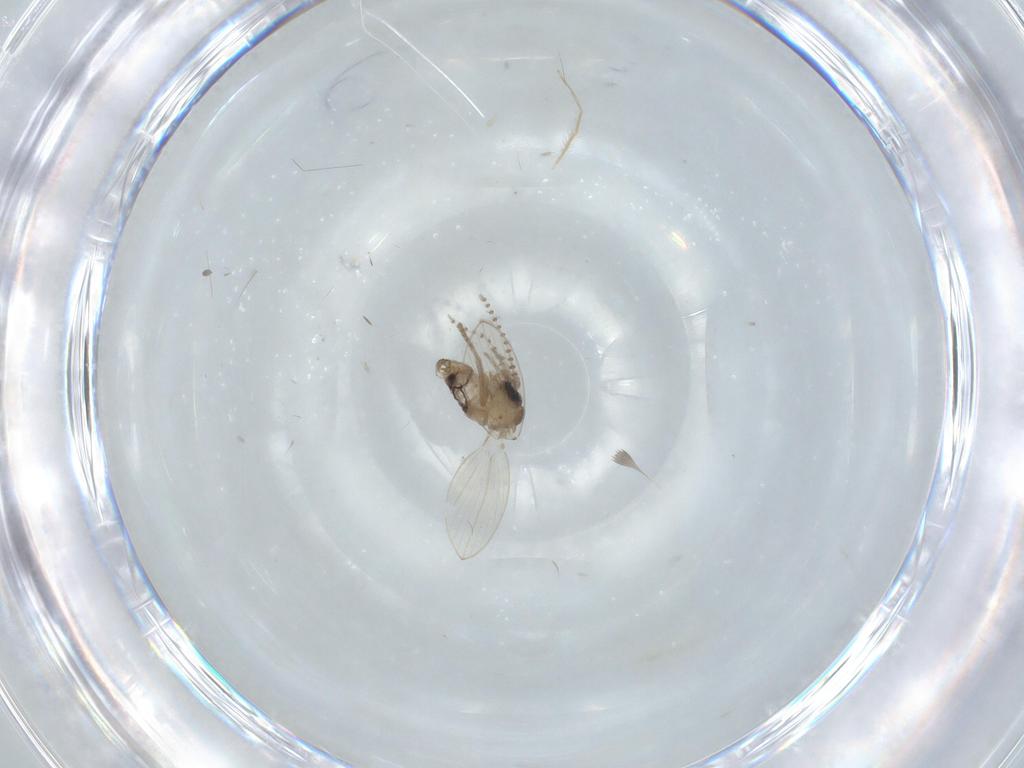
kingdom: Animalia
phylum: Arthropoda
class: Insecta
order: Diptera
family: Psychodidae
